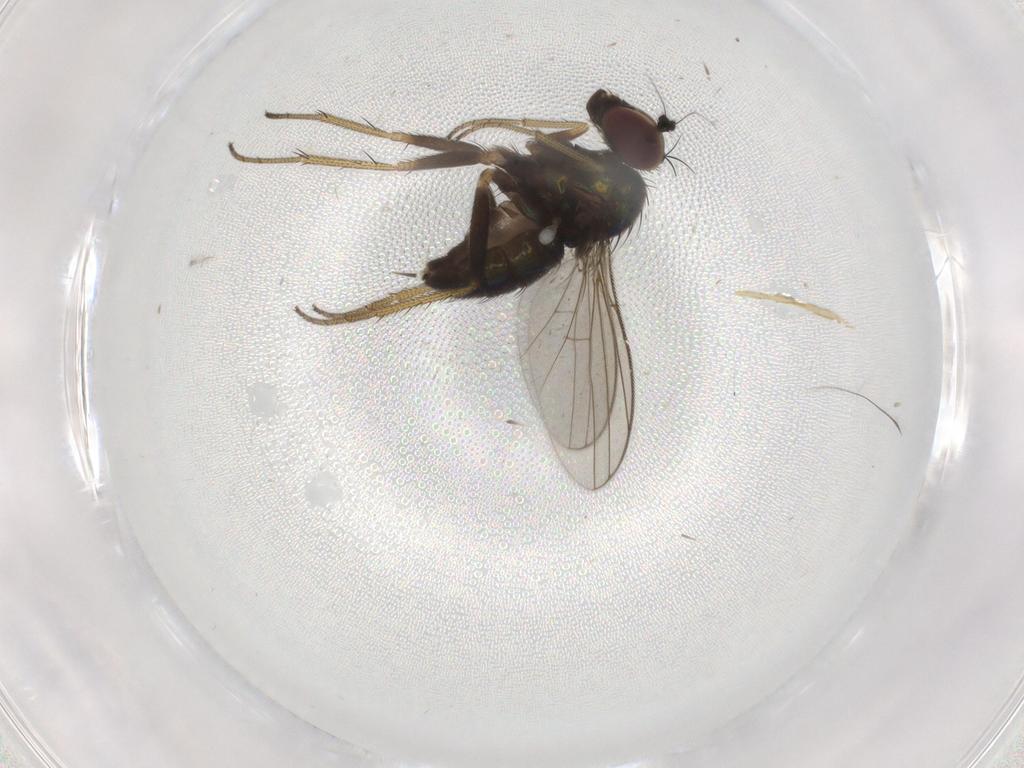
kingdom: Animalia
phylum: Arthropoda
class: Insecta
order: Diptera
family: Dolichopodidae
